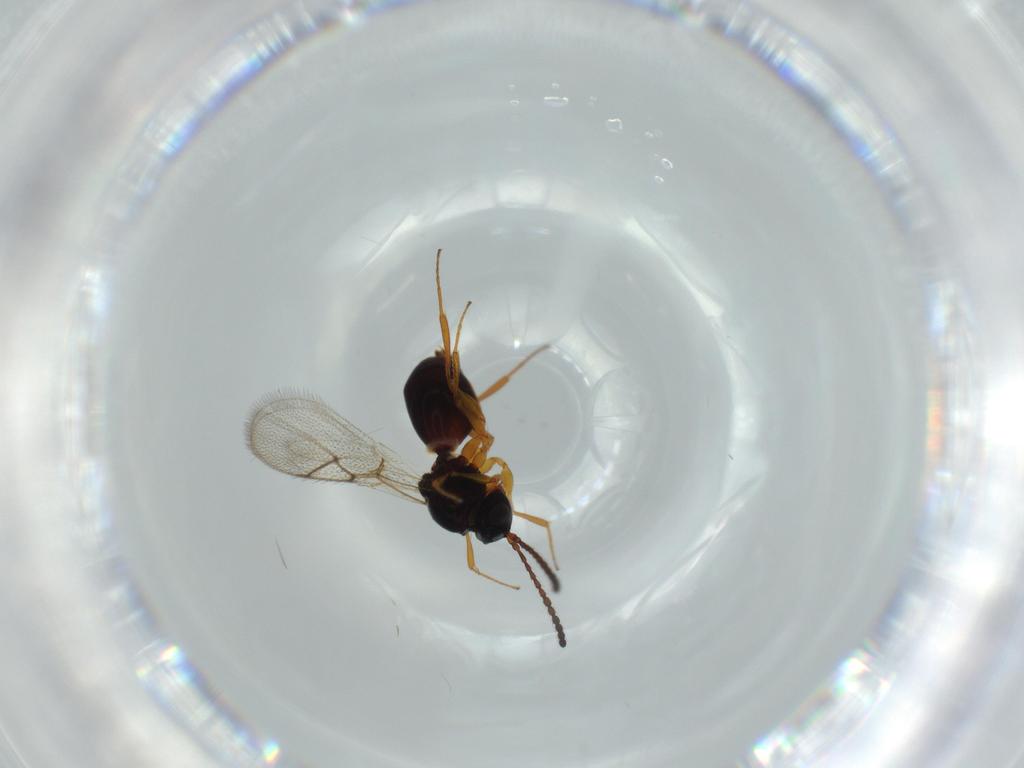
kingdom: Animalia
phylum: Arthropoda
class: Insecta
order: Hymenoptera
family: Figitidae
